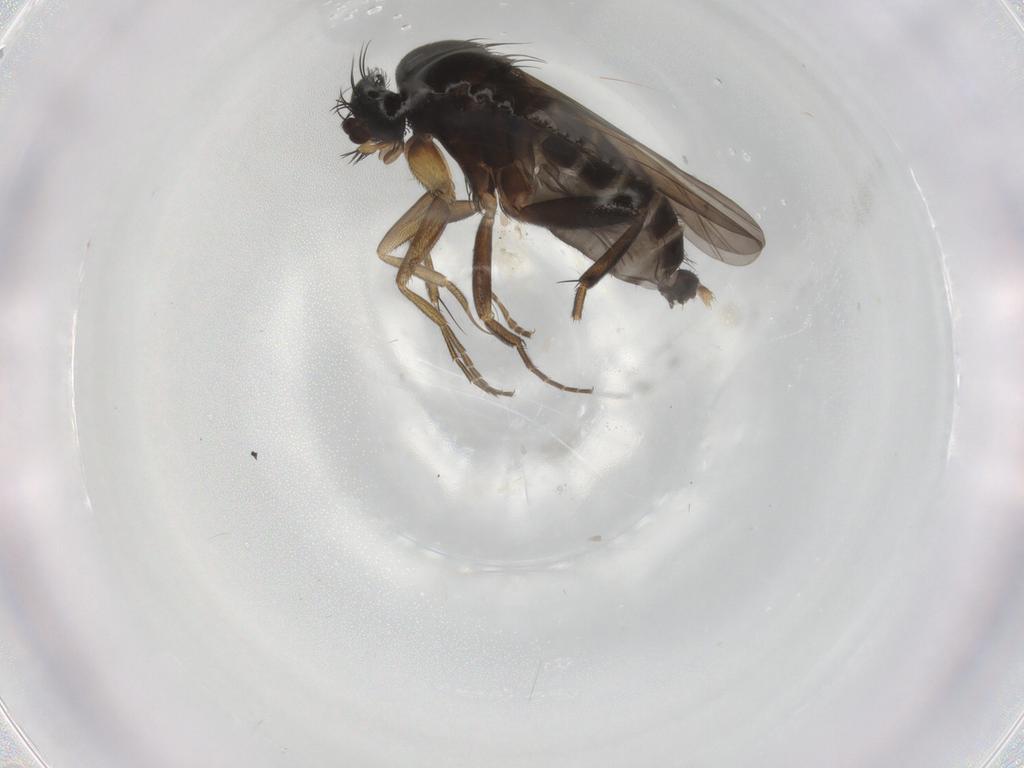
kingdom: Animalia
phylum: Arthropoda
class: Insecta
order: Diptera
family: Phoridae
